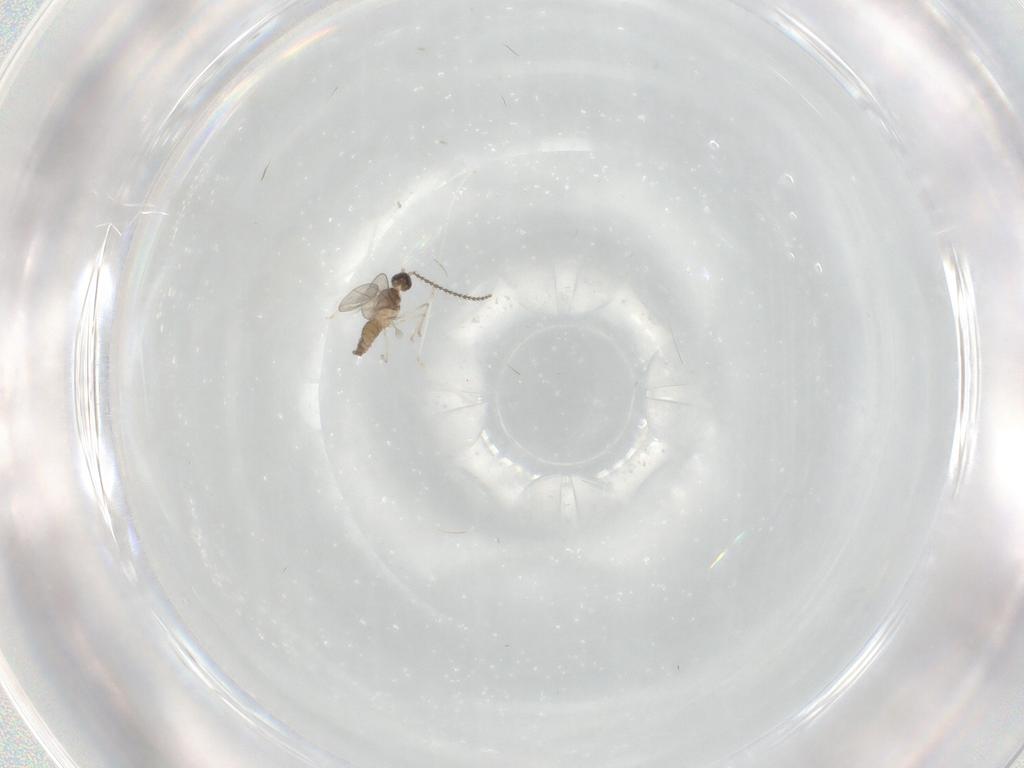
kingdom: Animalia
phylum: Arthropoda
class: Insecta
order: Diptera
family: Cecidomyiidae
